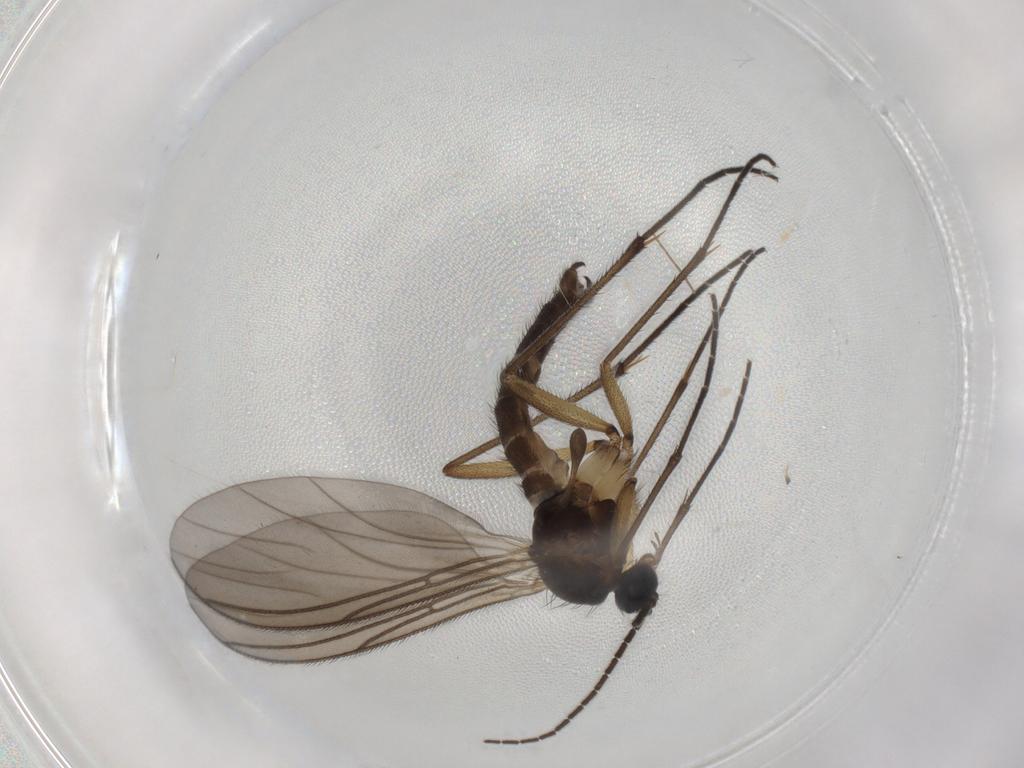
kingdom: Animalia
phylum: Arthropoda
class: Insecta
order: Diptera
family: Sciaridae
